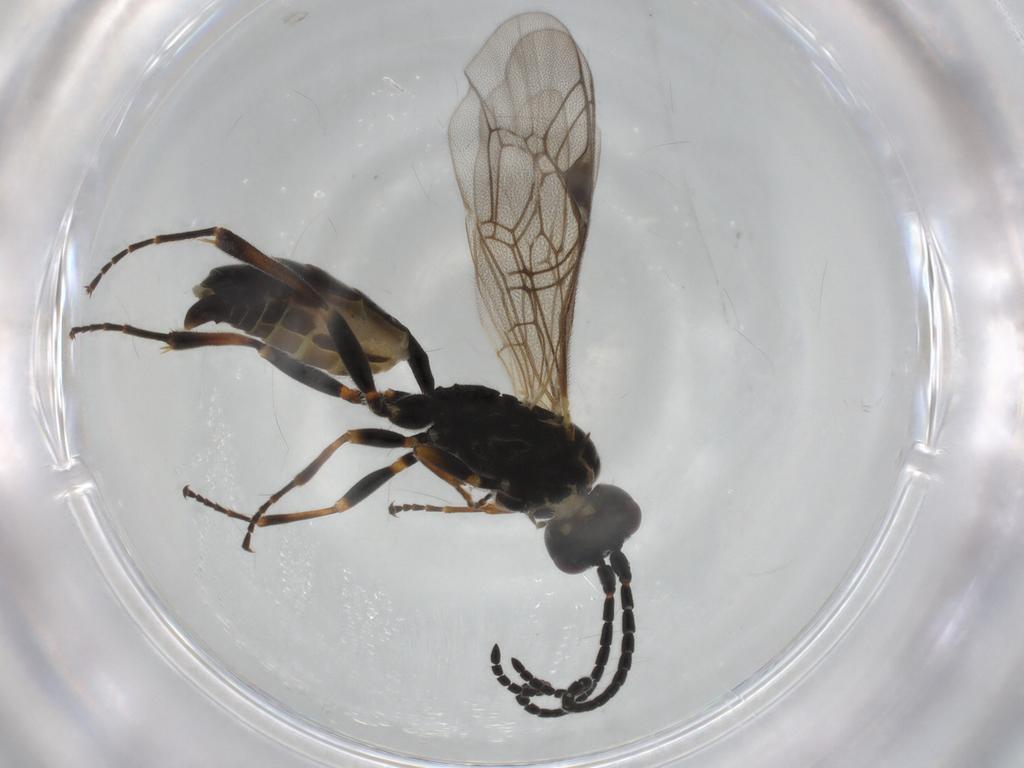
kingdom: Animalia
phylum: Arthropoda
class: Insecta
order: Hymenoptera
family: Ichneumonidae
